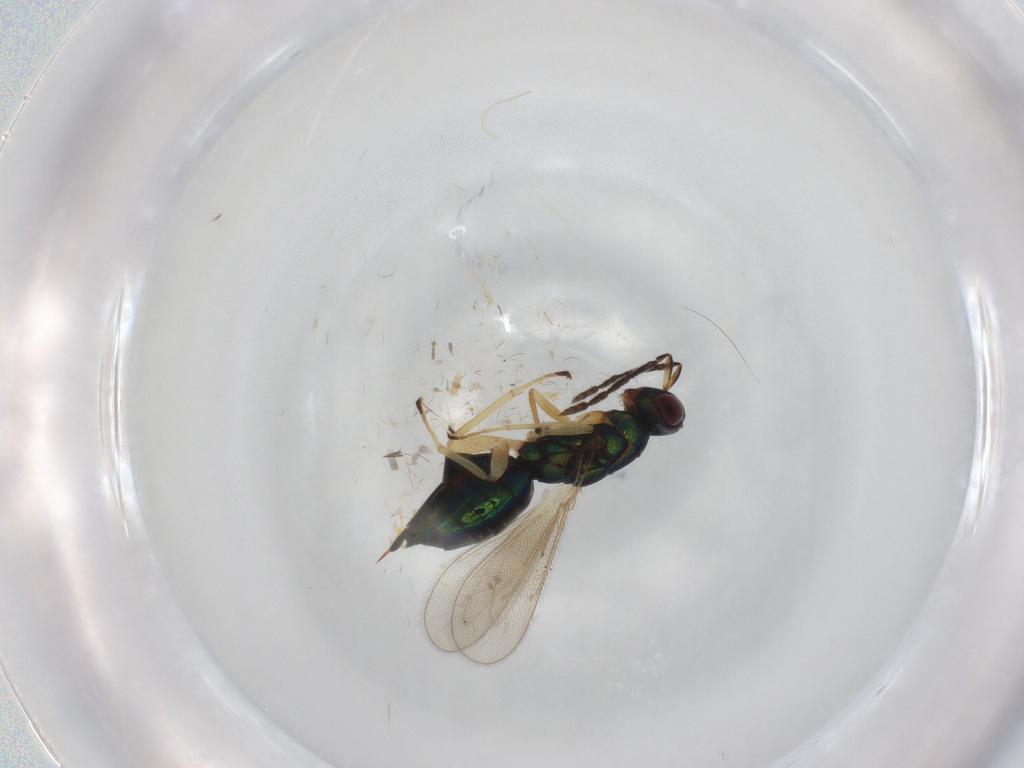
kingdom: Animalia
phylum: Arthropoda
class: Insecta
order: Hymenoptera
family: Eulophidae
